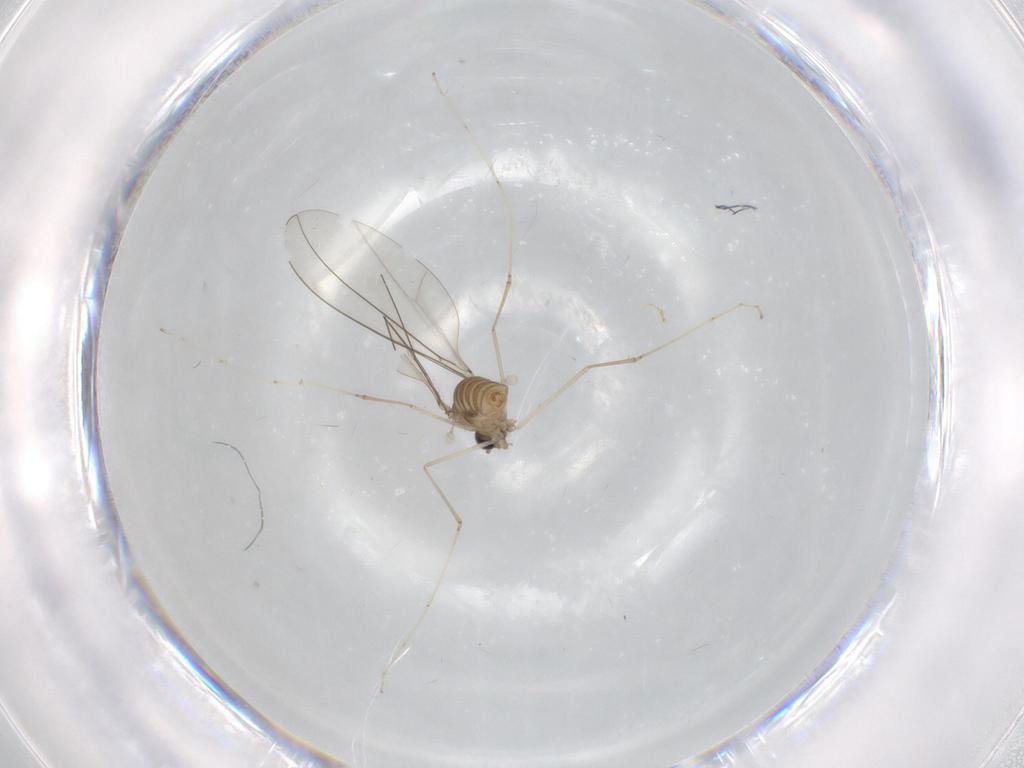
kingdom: Animalia
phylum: Arthropoda
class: Insecta
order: Diptera
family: Cecidomyiidae
